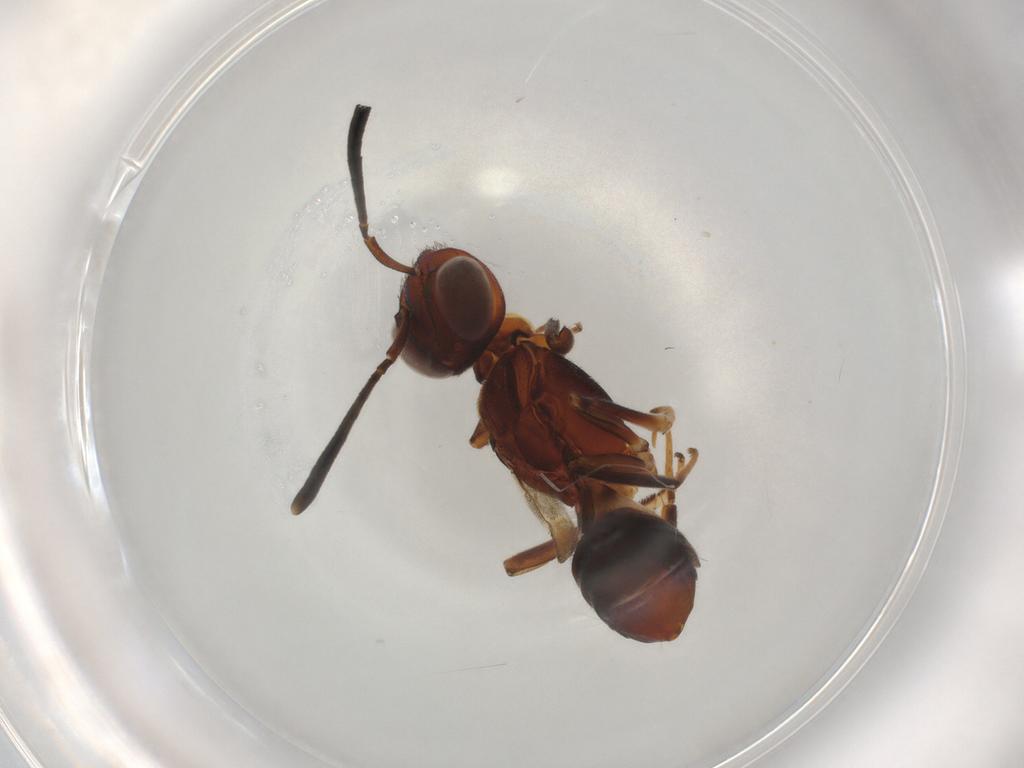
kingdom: Animalia
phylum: Arthropoda
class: Insecta
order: Hymenoptera
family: Eupelmidae
